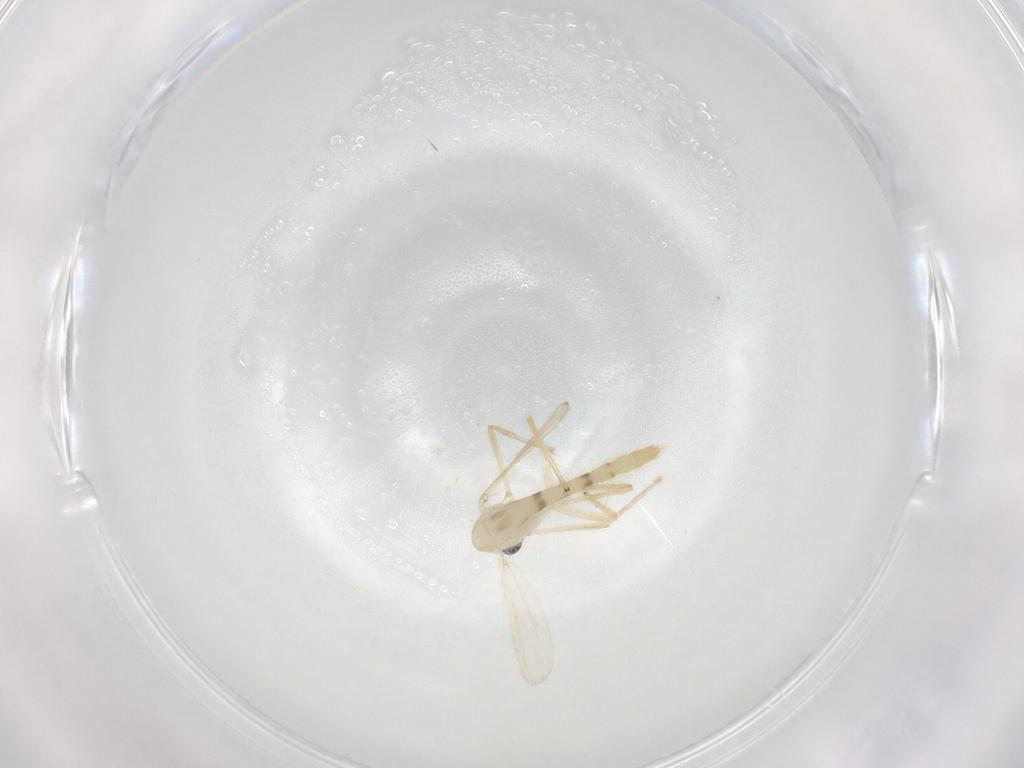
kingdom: Animalia
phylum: Arthropoda
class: Insecta
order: Diptera
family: Chironomidae
